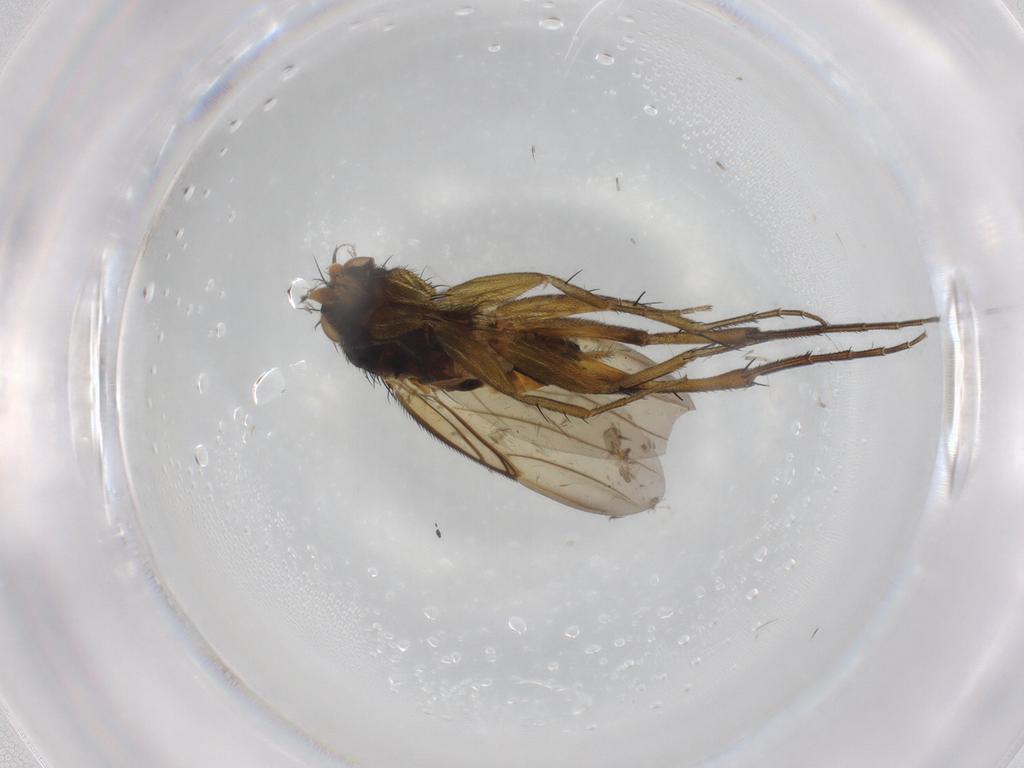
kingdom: Animalia
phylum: Arthropoda
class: Insecta
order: Diptera
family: Phoridae
